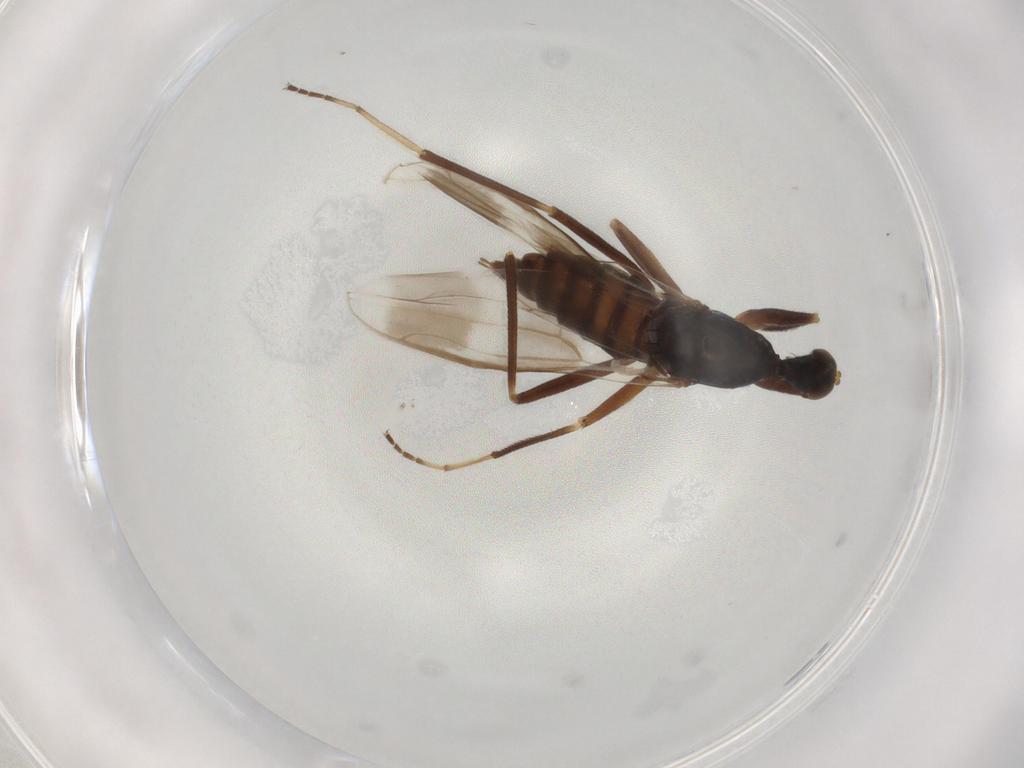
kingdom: Animalia
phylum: Arthropoda
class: Insecta
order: Diptera
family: Hybotidae
